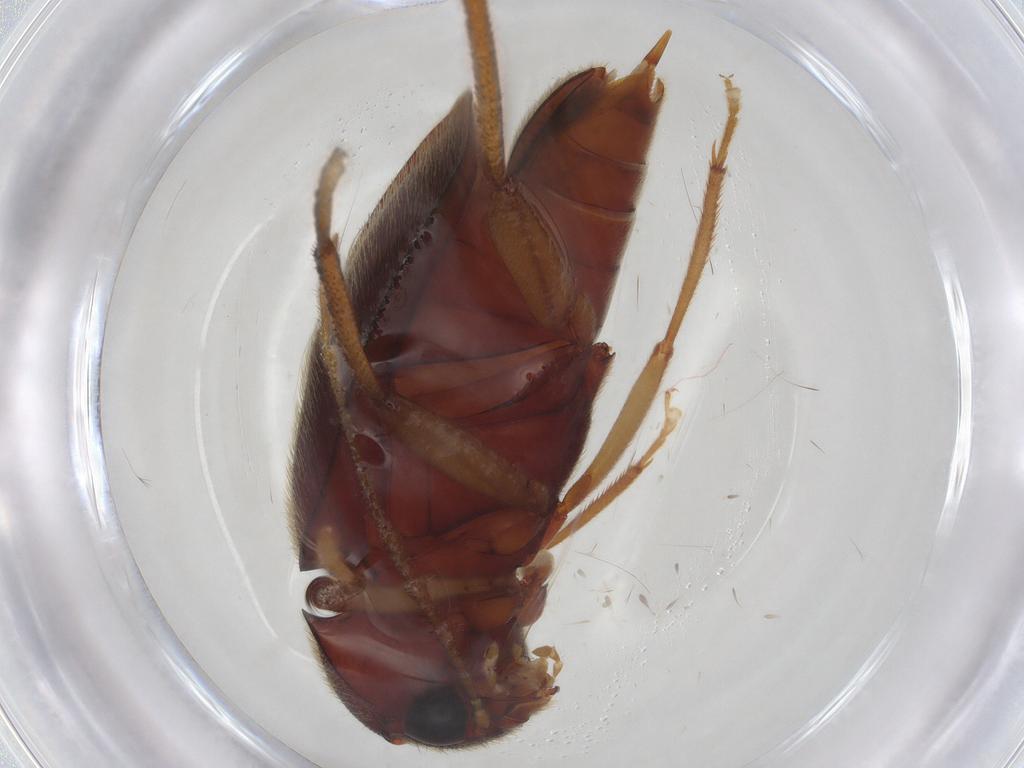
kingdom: Animalia
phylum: Arthropoda
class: Insecta
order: Coleoptera
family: Ptilodactylidae
